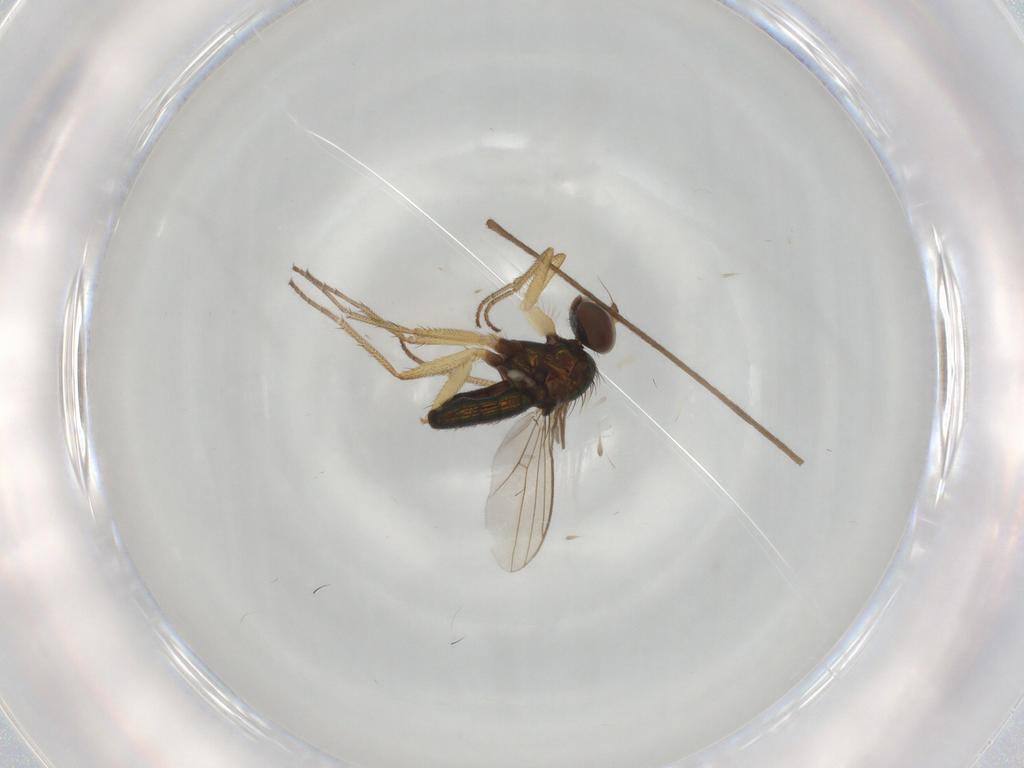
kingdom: Animalia
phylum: Arthropoda
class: Insecta
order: Diptera
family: Limoniidae
